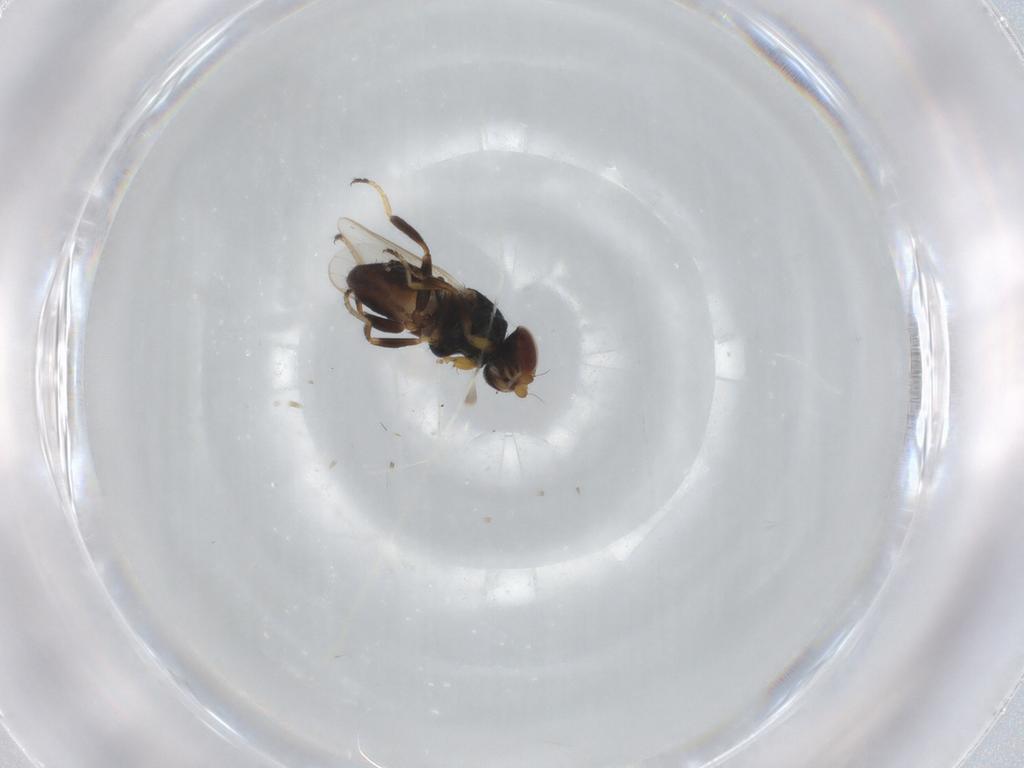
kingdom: Animalia
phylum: Arthropoda
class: Insecta
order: Diptera
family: Chloropidae
